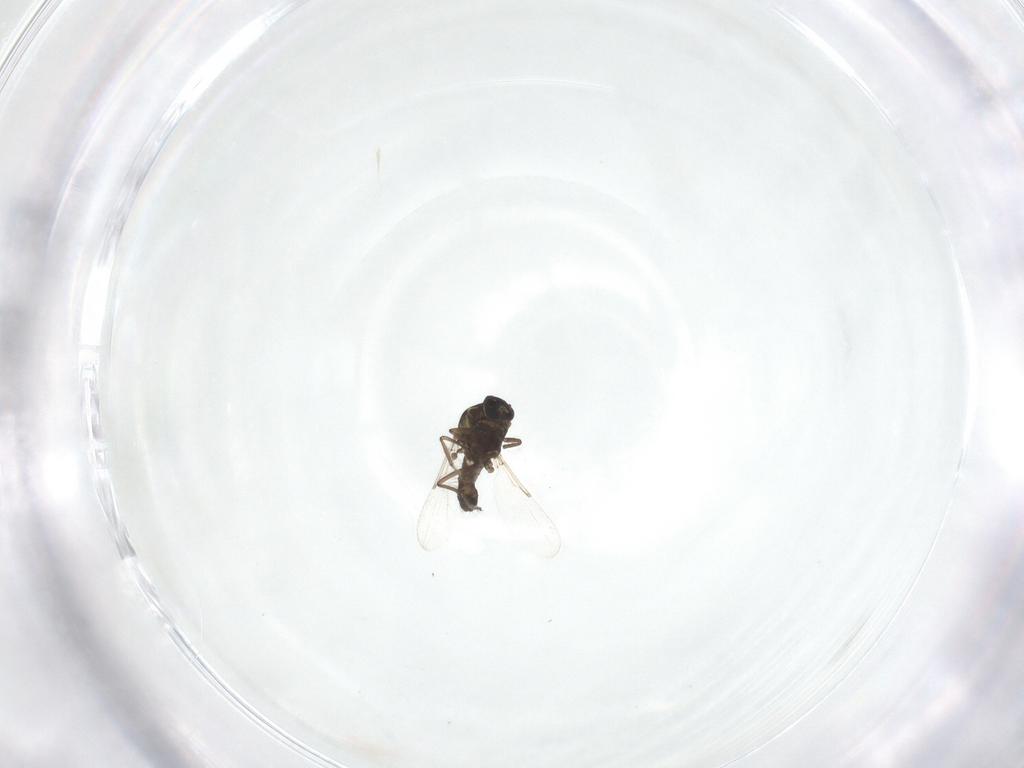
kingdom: Animalia
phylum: Arthropoda
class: Insecta
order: Diptera
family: Ceratopogonidae
